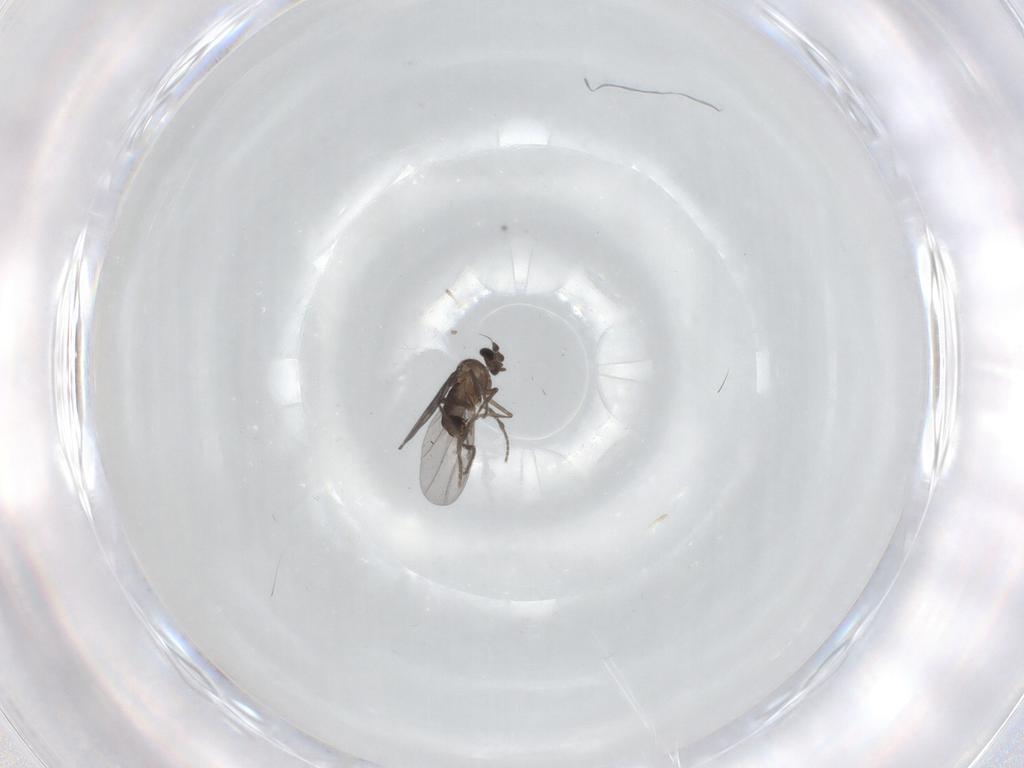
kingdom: Animalia
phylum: Arthropoda
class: Insecta
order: Diptera
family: Phoridae
